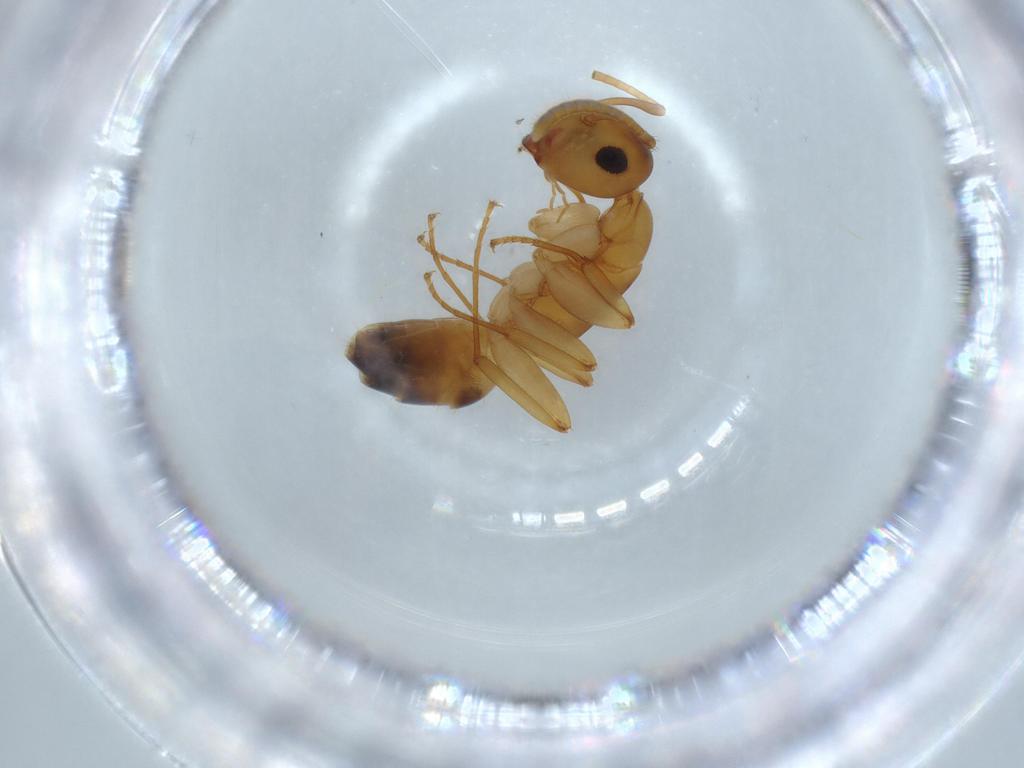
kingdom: Animalia
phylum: Arthropoda
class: Insecta
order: Hymenoptera
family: Formicidae
